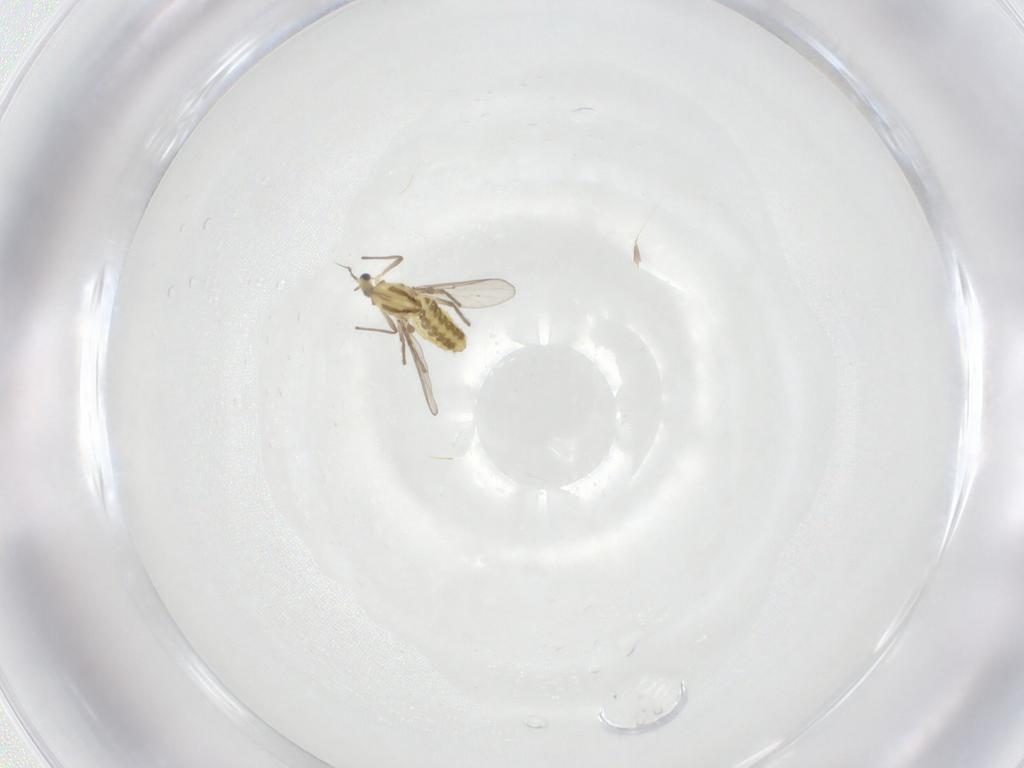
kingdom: Animalia
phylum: Arthropoda
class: Insecta
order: Diptera
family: Chironomidae
